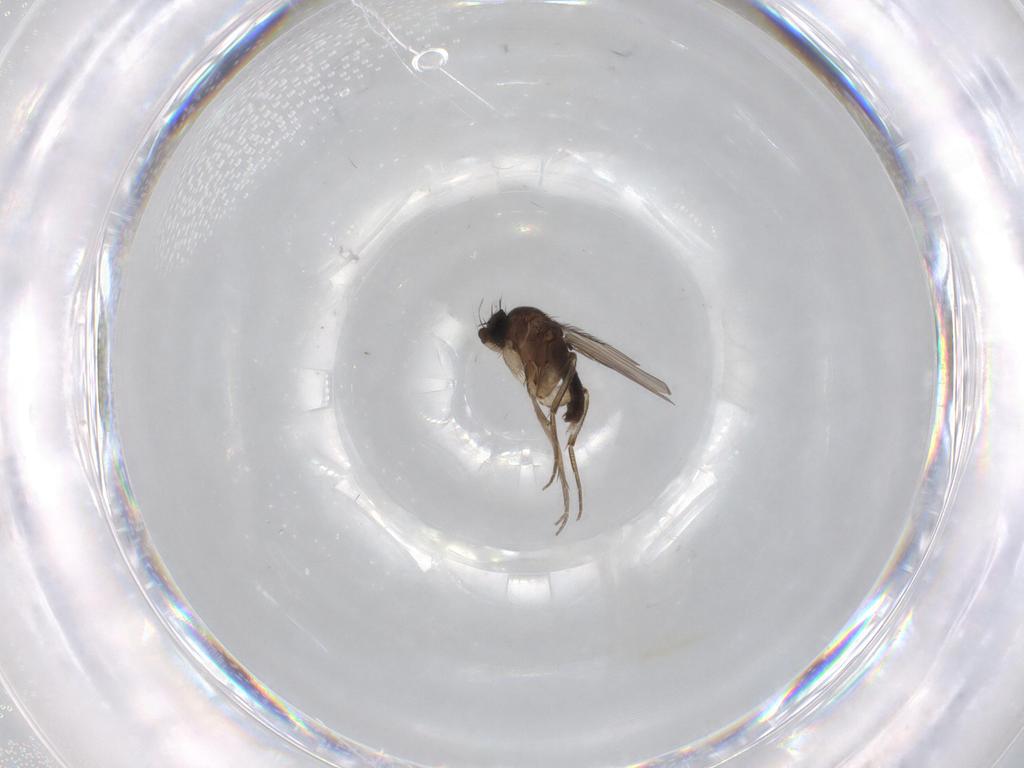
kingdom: Animalia
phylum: Arthropoda
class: Insecta
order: Diptera
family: Phoridae
